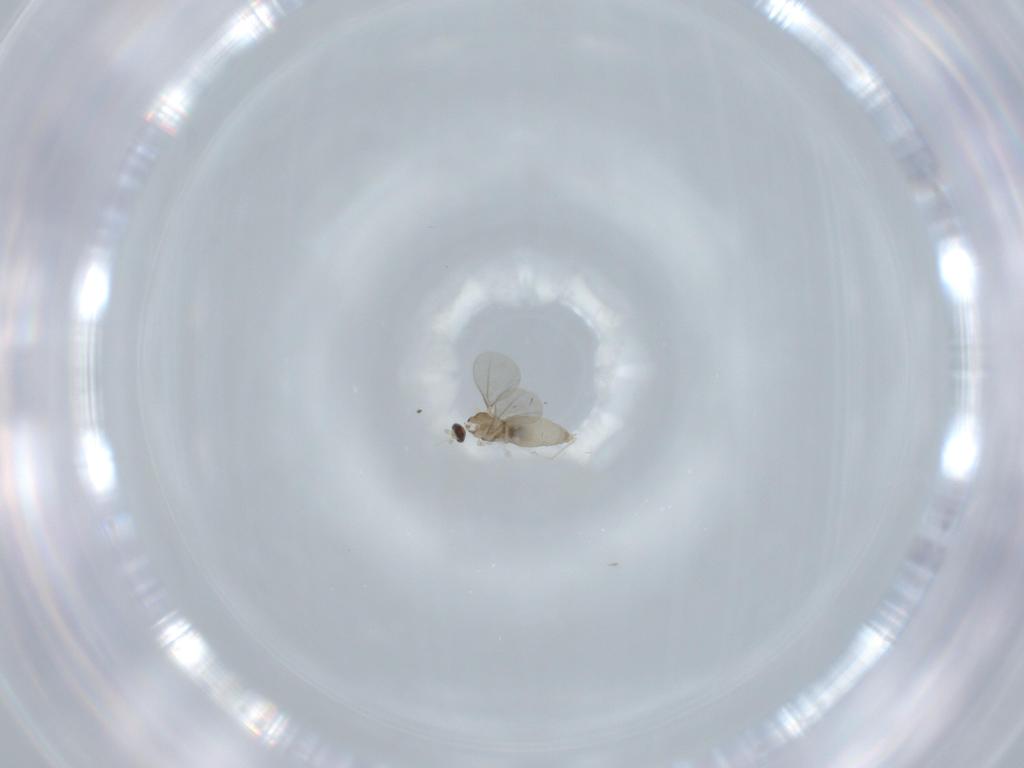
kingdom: Animalia
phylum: Arthropoda
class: Insecta
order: Diptera
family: Cecidomyiidae
